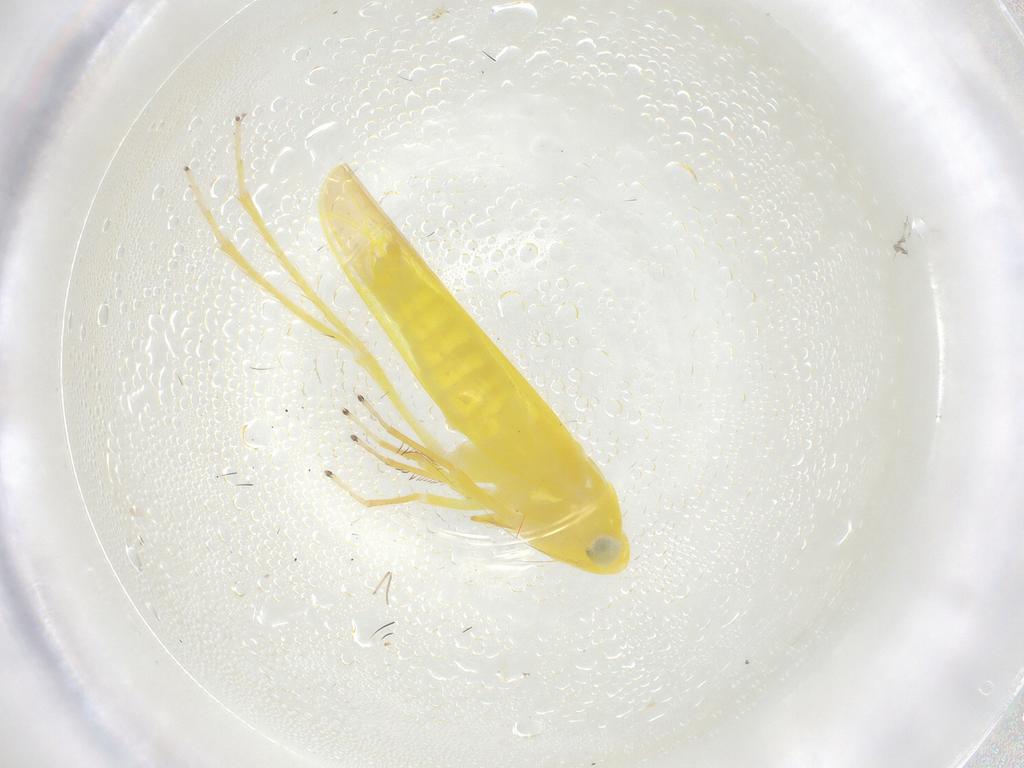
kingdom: Animalia
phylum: Arthropoda
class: Insecta
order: Hemiptera
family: Cicadellidae
